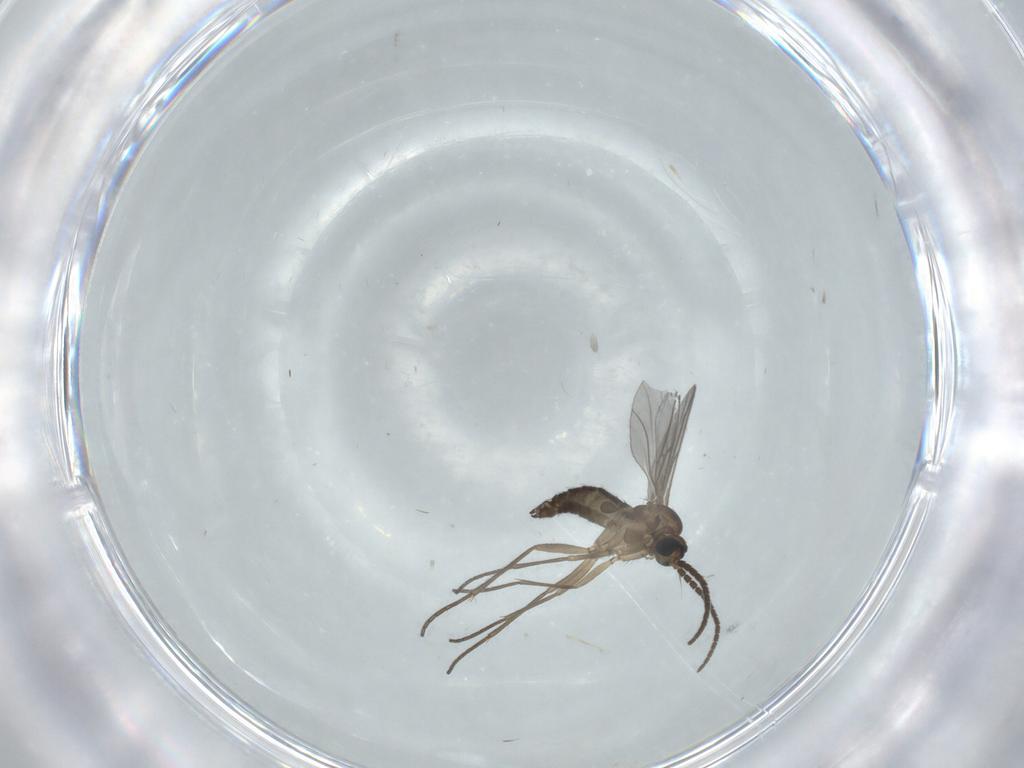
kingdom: Animalia
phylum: Arthropoda
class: Insecta
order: Diptera
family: Sciaridae
